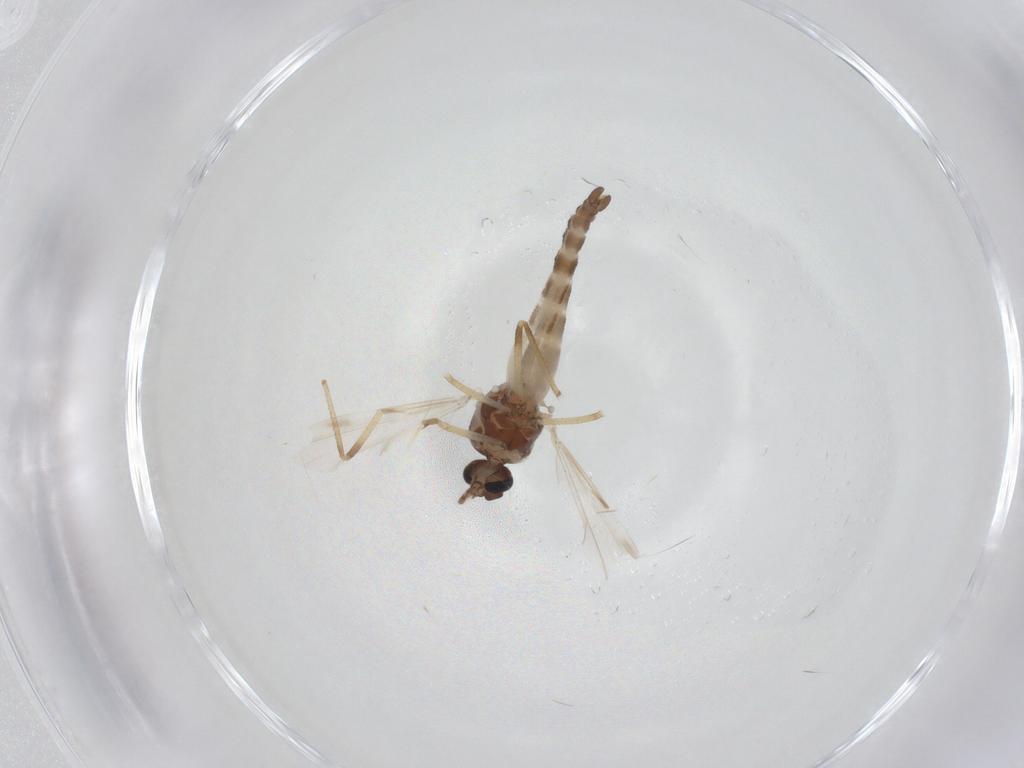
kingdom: Animalia
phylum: Arthropoda
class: Insecta
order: Diptera
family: Ceratopogonidae
